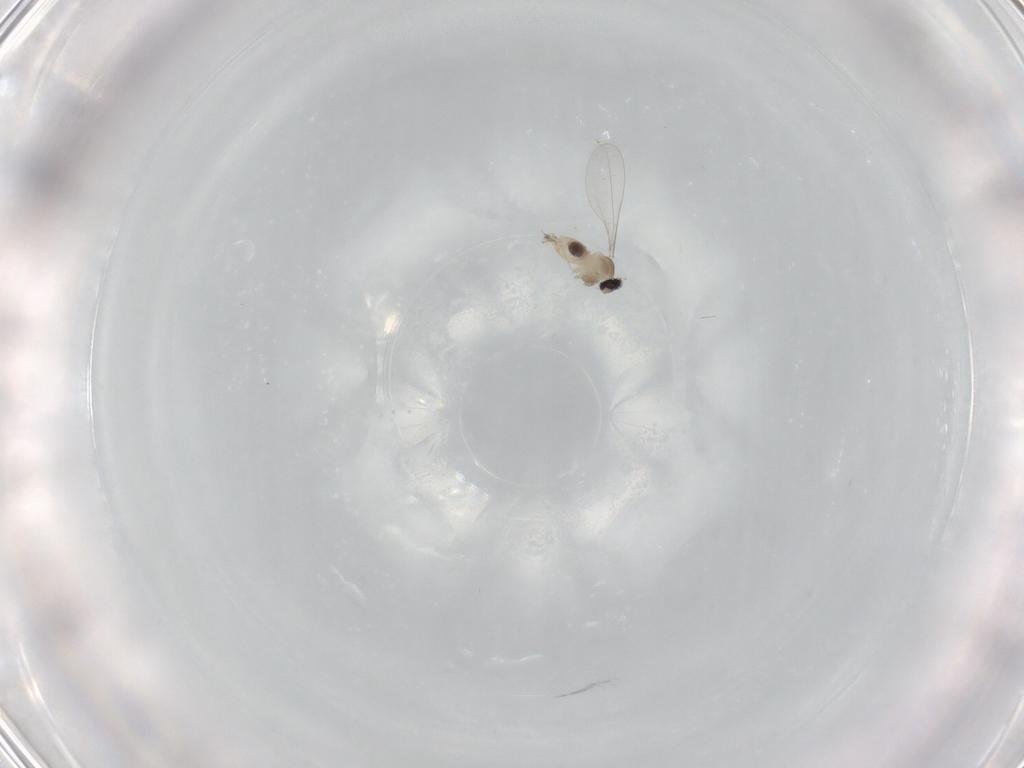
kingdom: Animalia
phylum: Arthropoda
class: Insecta
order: Diptera
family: Cecidomyiidae
